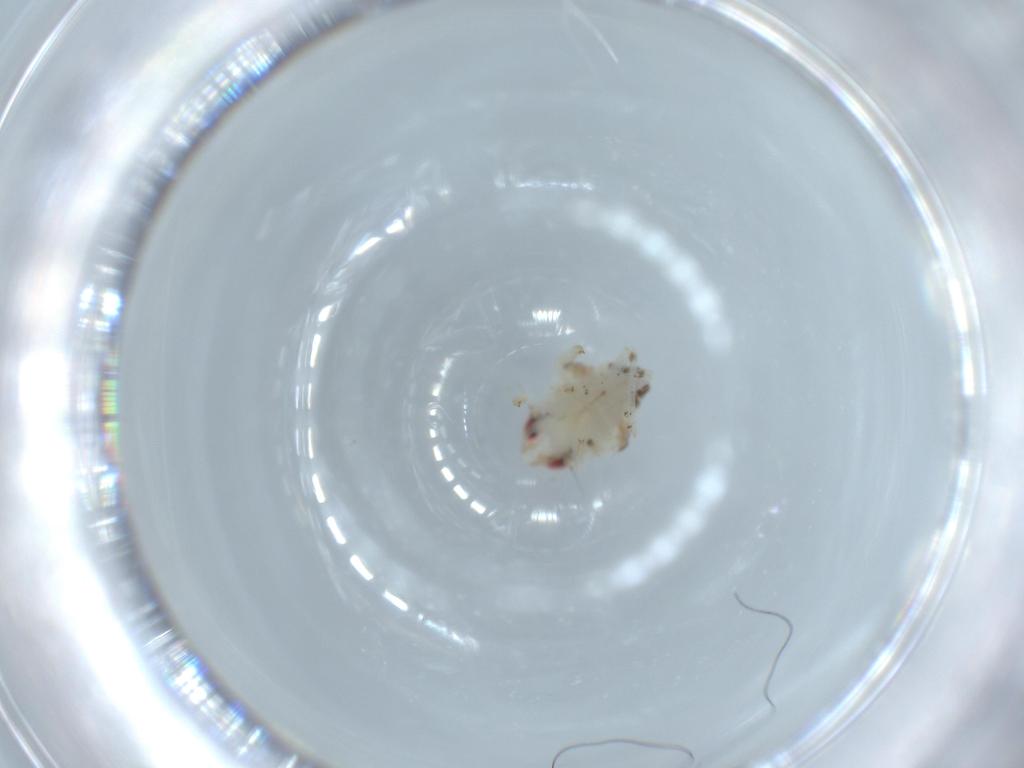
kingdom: Animalia
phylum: Arthropoda
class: Insecta
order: Hemiptera
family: Nogodinidae
